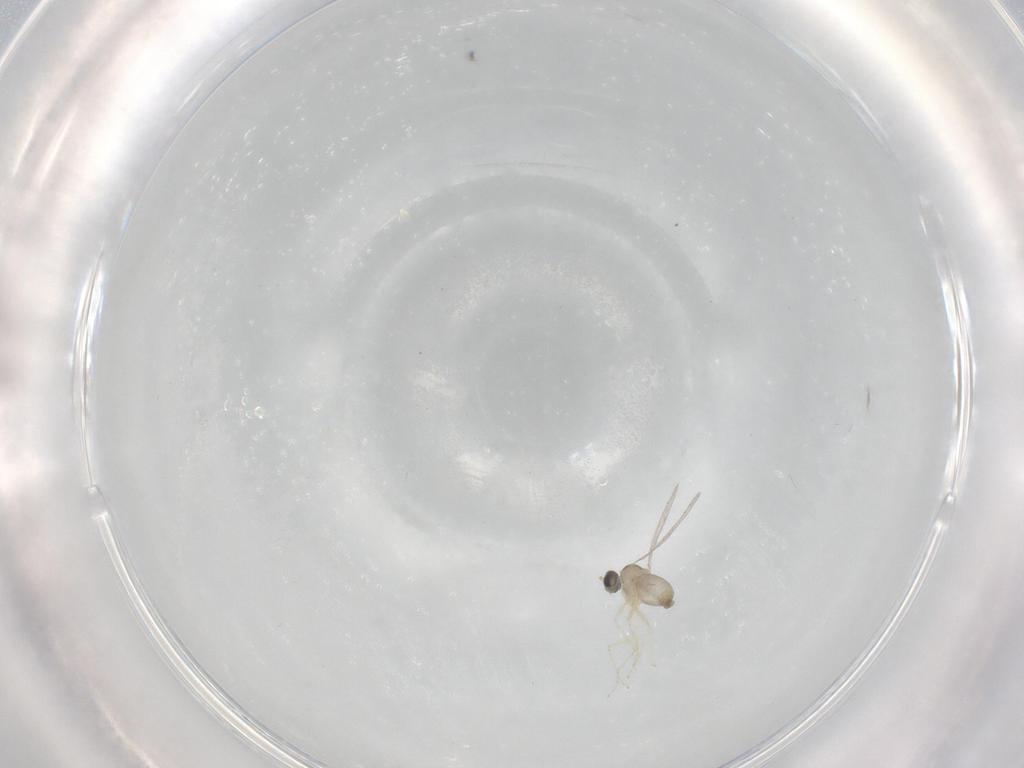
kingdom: Animalia
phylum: Arthropoda
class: Insecta
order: Diptera
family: Cecidomyiidae
